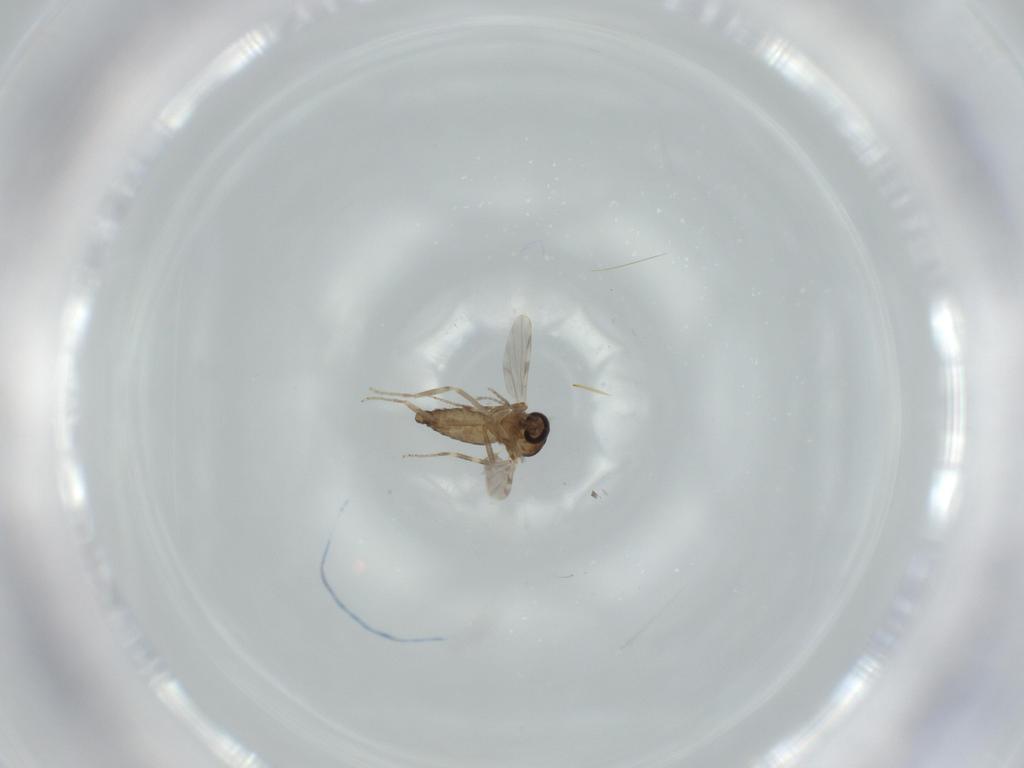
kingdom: Animalia
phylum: Arthropoda
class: Insecta
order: Diptera
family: Ceratopogonidae
